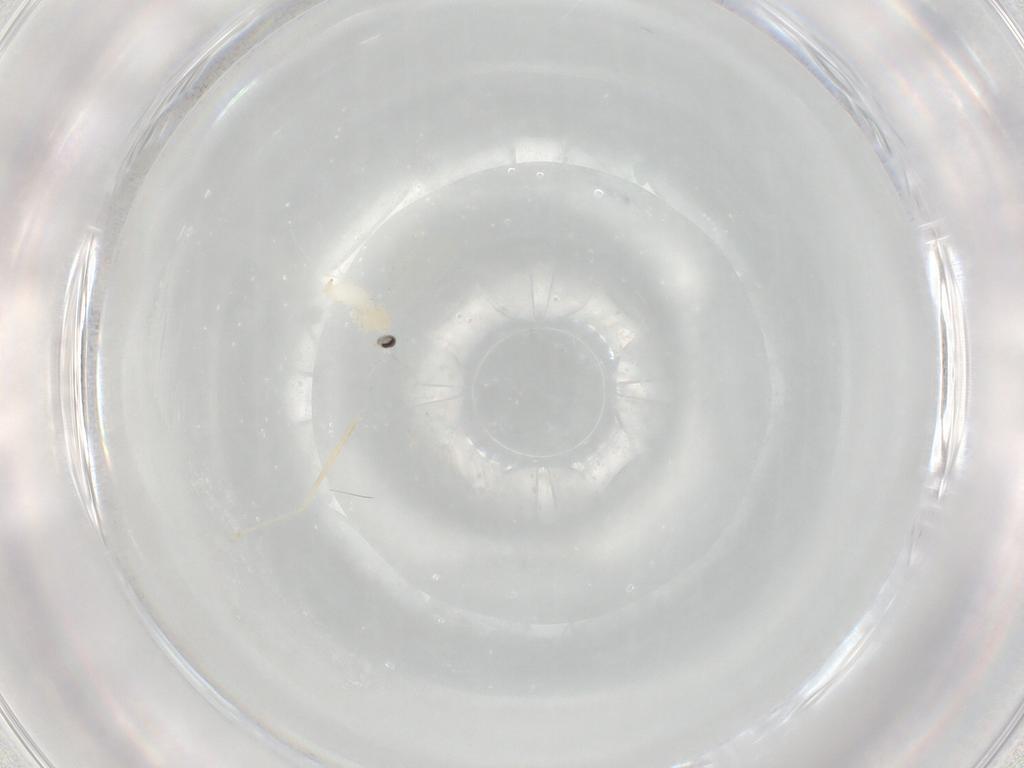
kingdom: Animalia
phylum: Arthropoda
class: Insecta
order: Diptera
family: Cecidomyiidae
